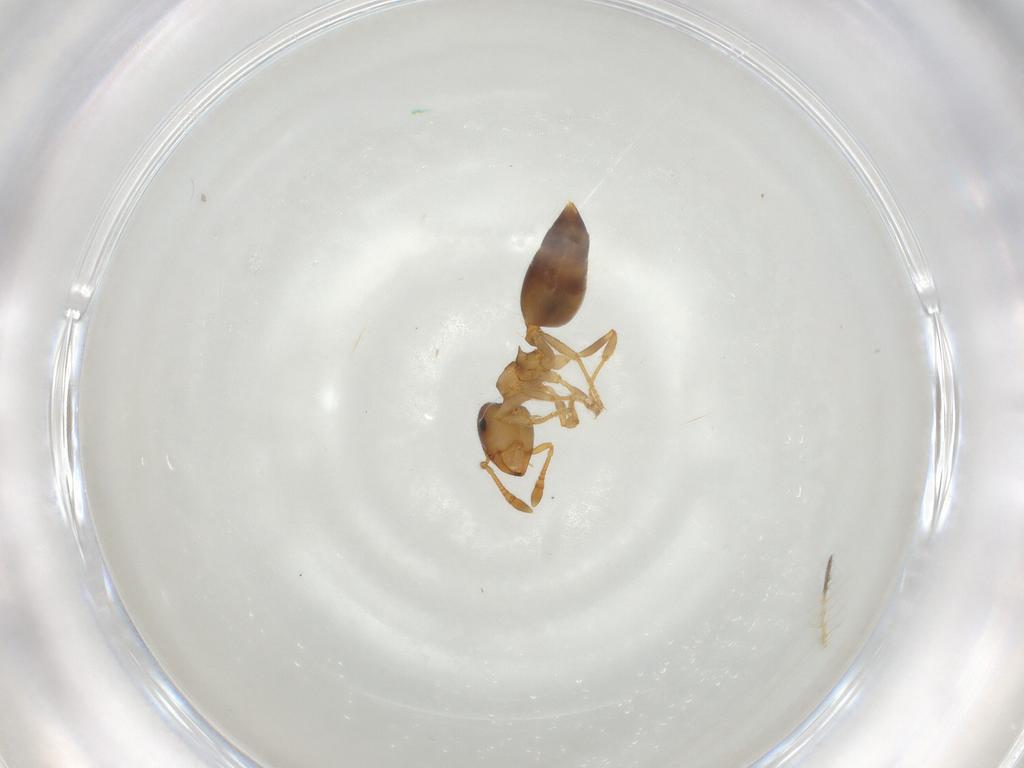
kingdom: Animalia
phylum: Arthropoda
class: Insecta
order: Hymenoptera
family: Formicidae
